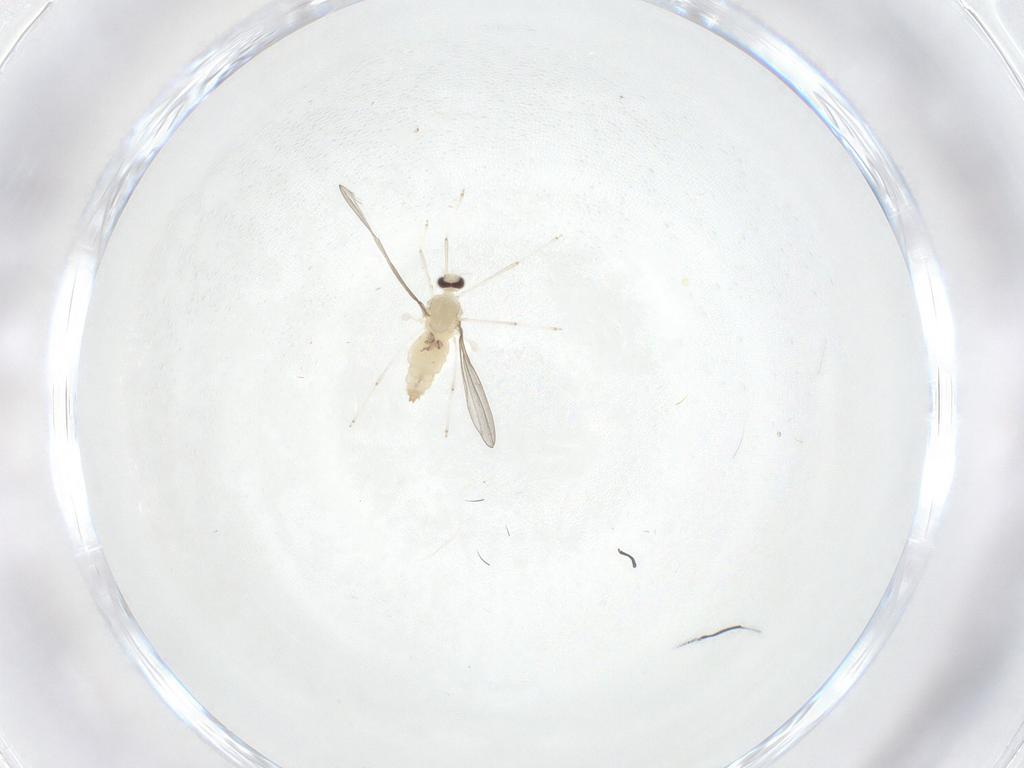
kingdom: Animalia
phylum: Arthropoda
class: Insecta
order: Diptera
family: Cecidomyiidae
